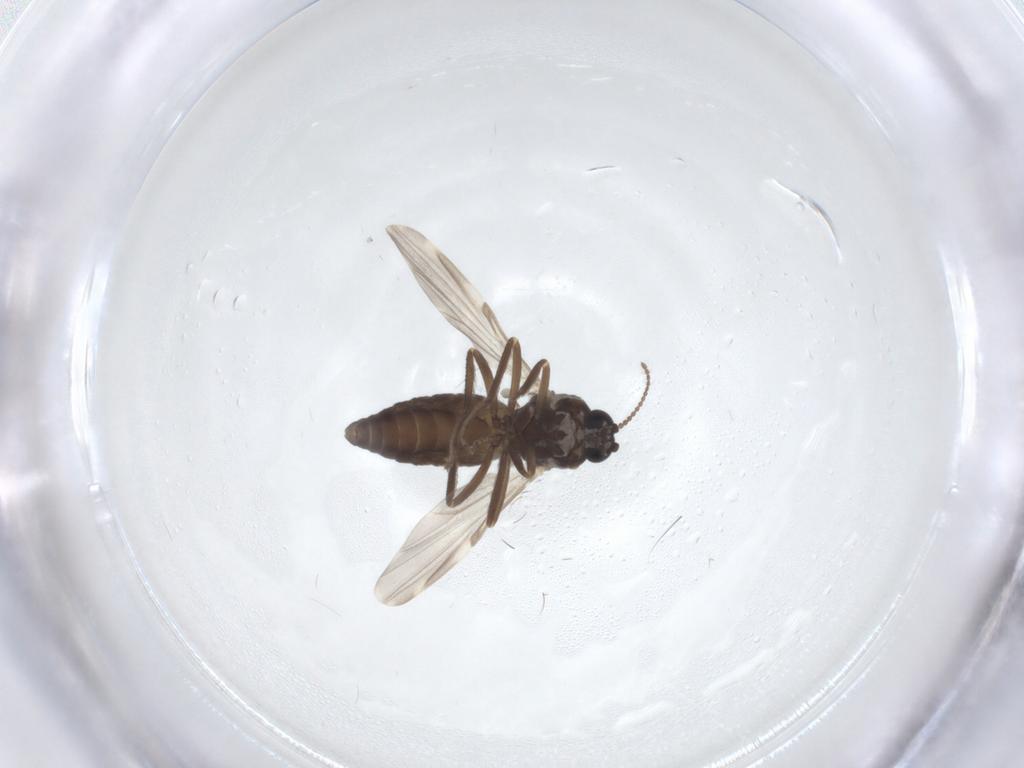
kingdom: Animalia
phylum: Arthropoda
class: Insecta
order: Diptera
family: Ceratopogonidae
